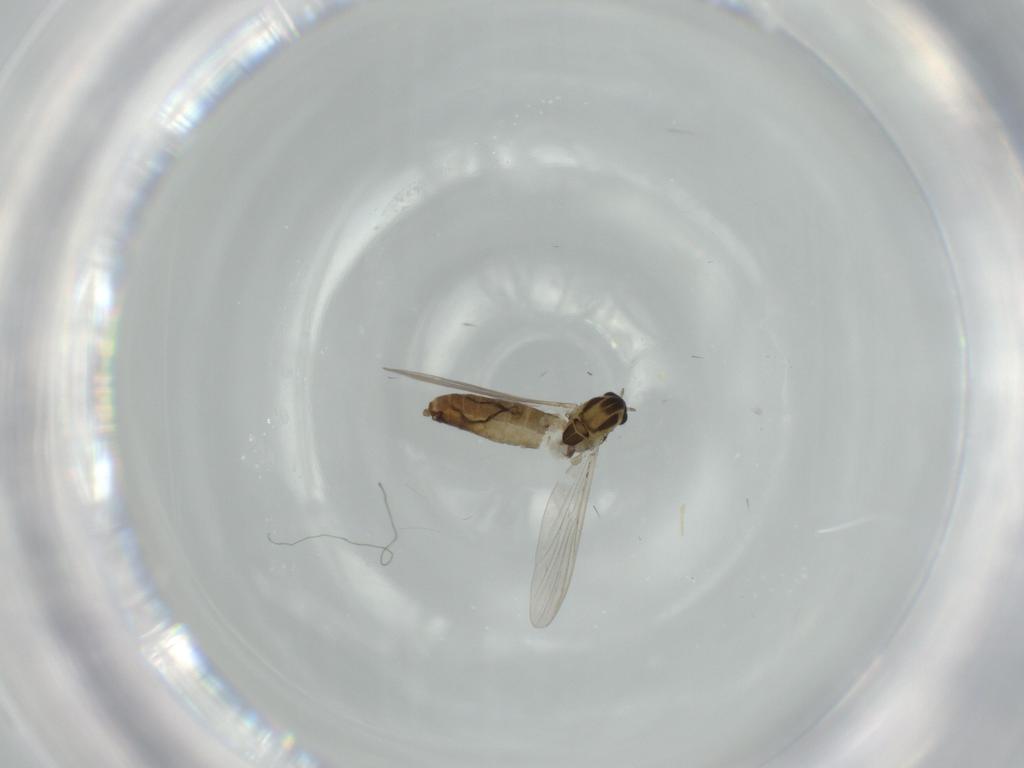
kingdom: Animalia
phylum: Arthropoda
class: Insecta
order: Diptera
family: Chironomidae
